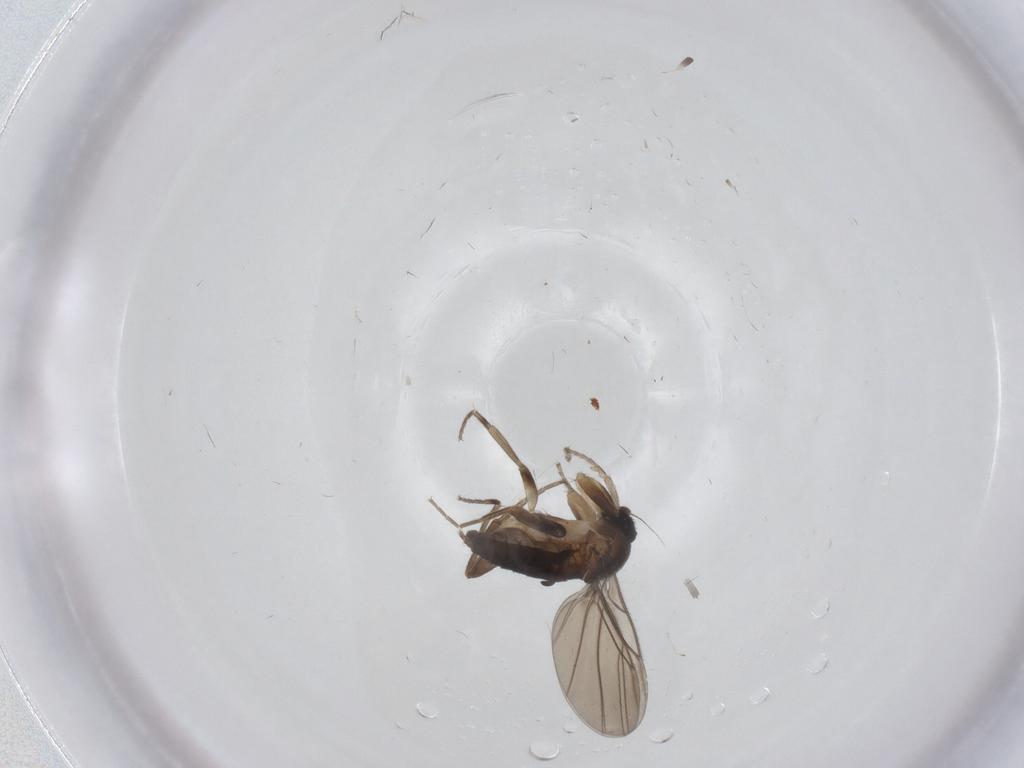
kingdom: Animalia
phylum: Arthropoda
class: Insecta
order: Diptera
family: Phoridae
